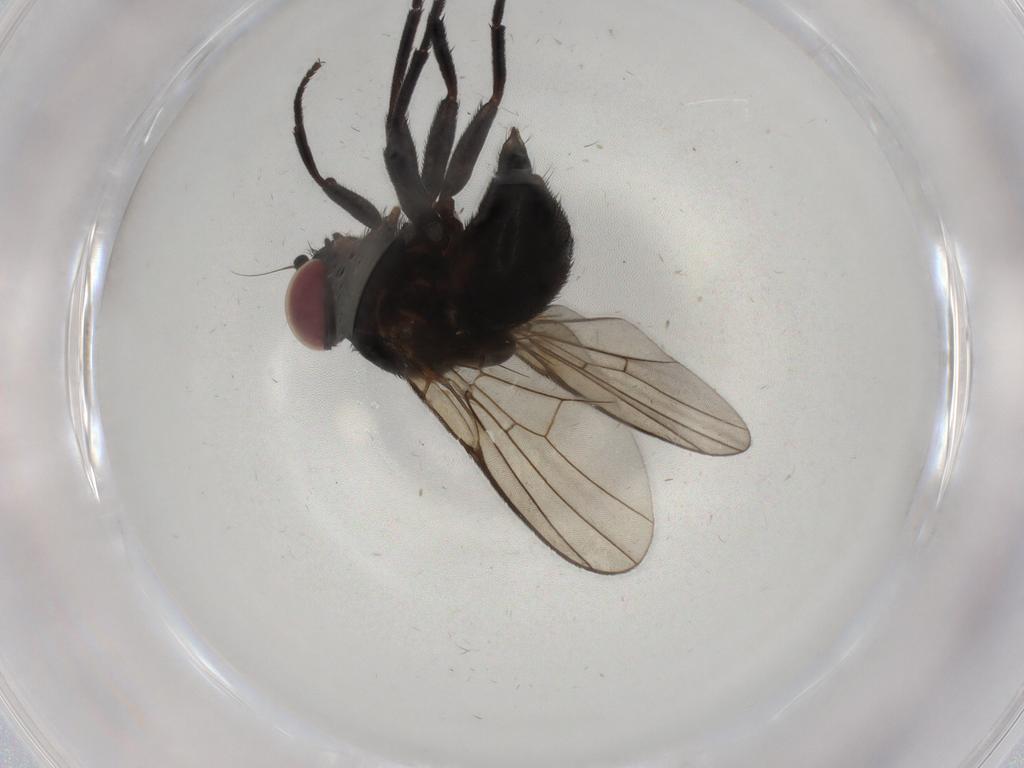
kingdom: Animalia
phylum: Arthropoda
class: Insecta
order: Diptera
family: Agromyzidae
